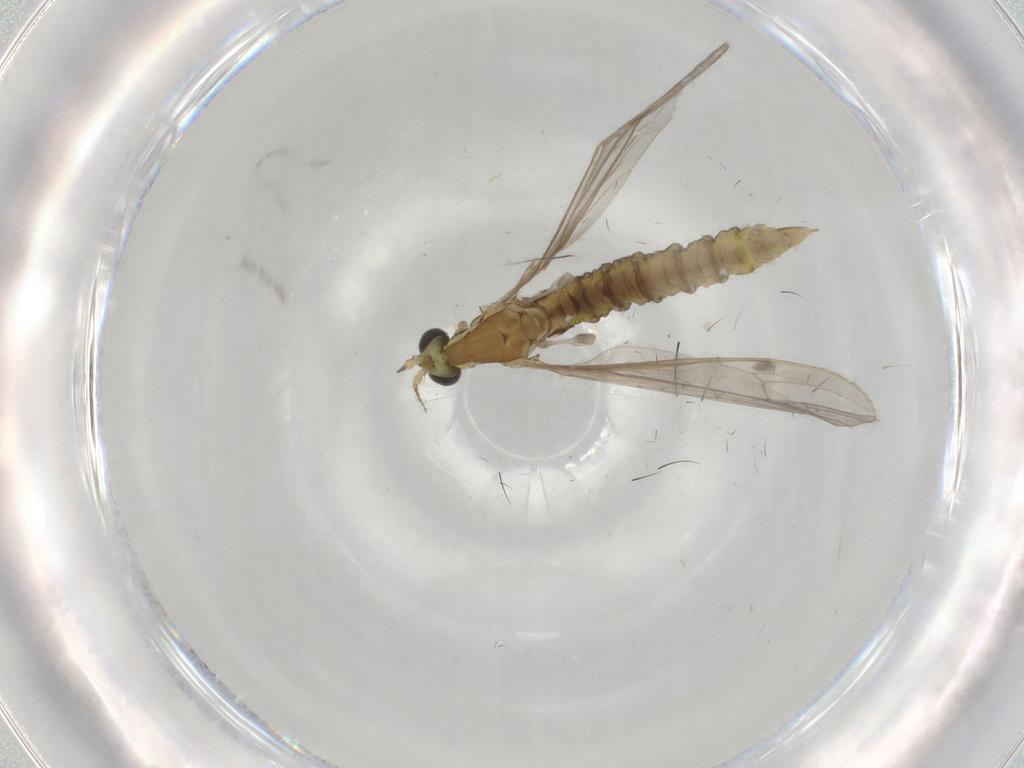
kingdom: Animalia
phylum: Arthropoda
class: Insecta
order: Diptera
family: Limoniidae
